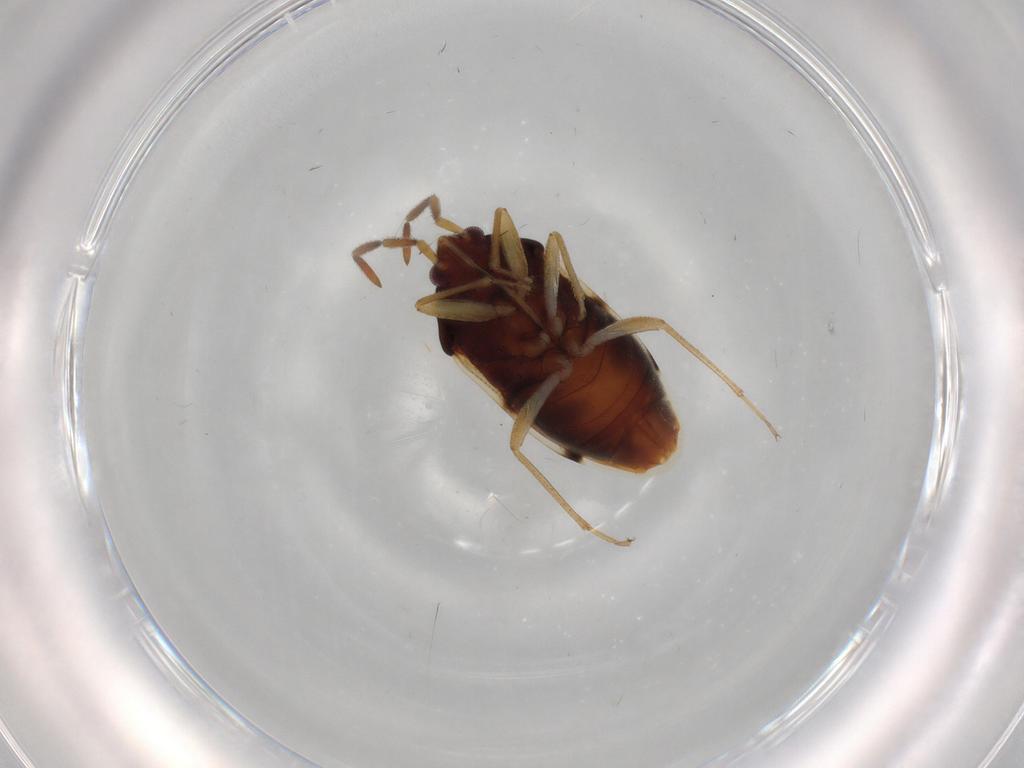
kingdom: Animalia
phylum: Arthropoda
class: Insecta
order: Hemiptera
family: Rhyparochromidae
